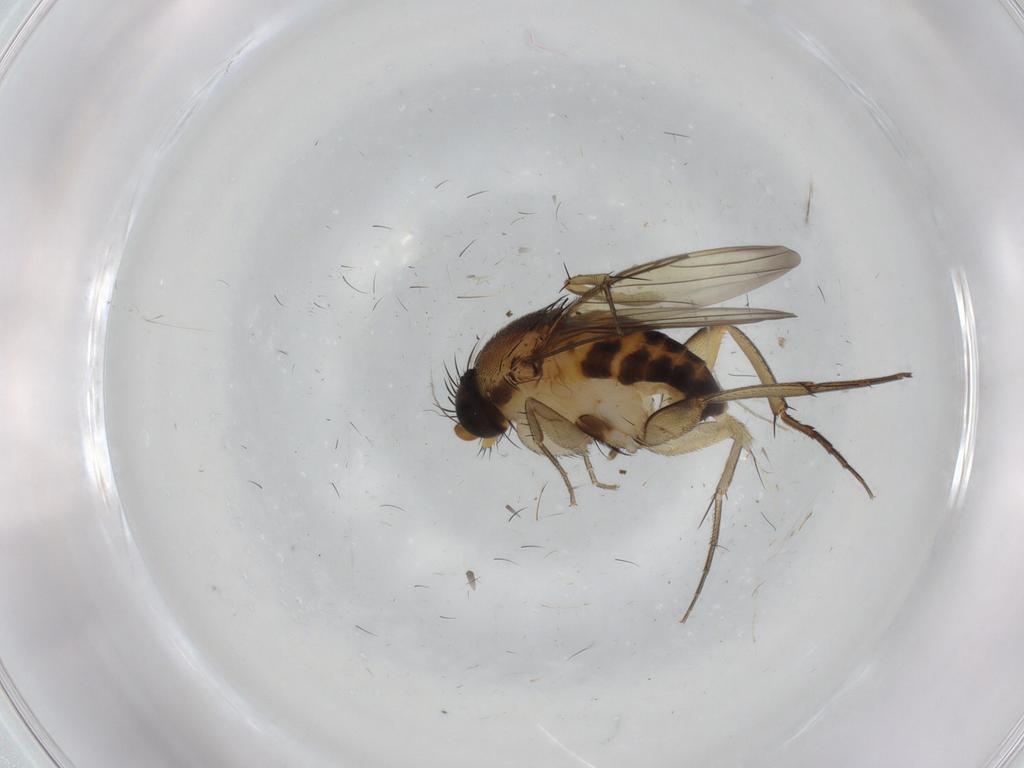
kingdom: Animalia
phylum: Arthropoda
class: Insecta
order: Diptera
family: Phoridae
